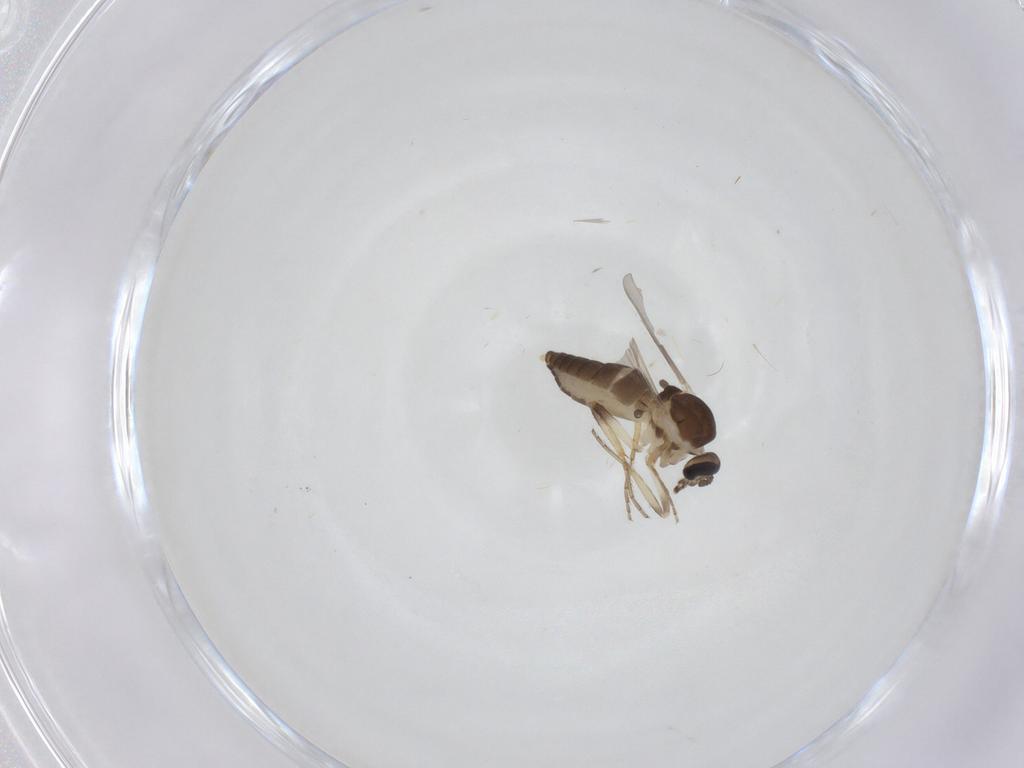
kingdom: Animalia
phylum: Arthropoda
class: Insecta
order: Diptera
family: Ceratopogonidae
